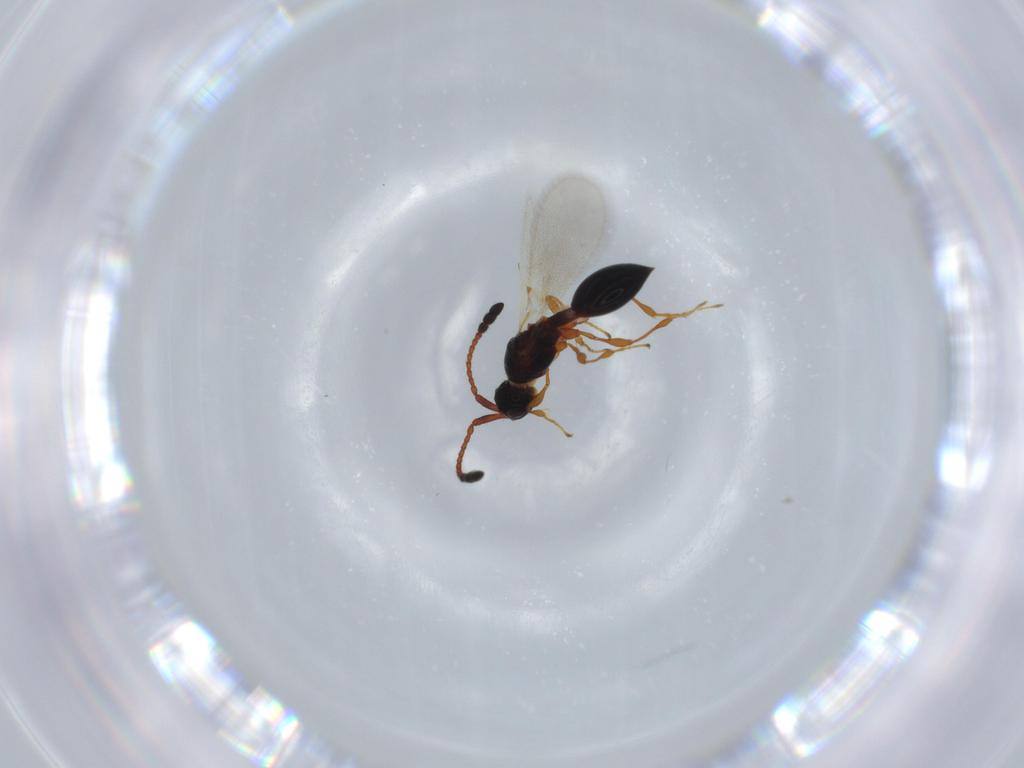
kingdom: Animalia
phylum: Arthropoda
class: Insecta
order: Hymenoptera
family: Diapriidae
